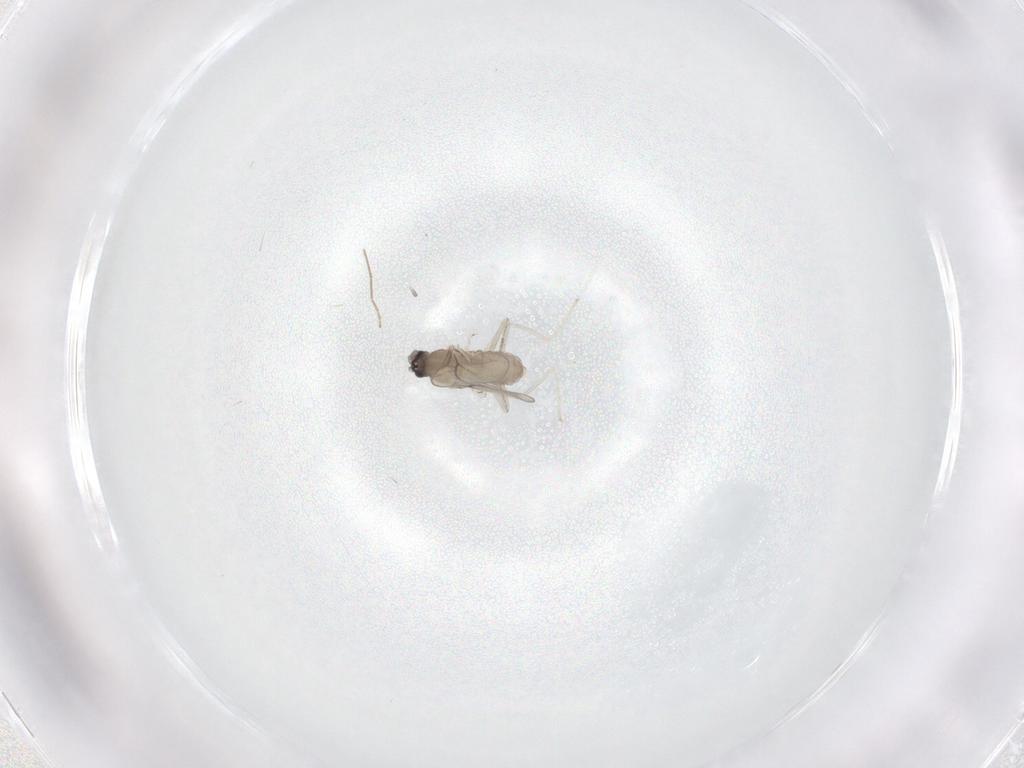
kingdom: Animalia
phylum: Arthropoda
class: Insecta
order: Diptera
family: Cecidomyiidae
